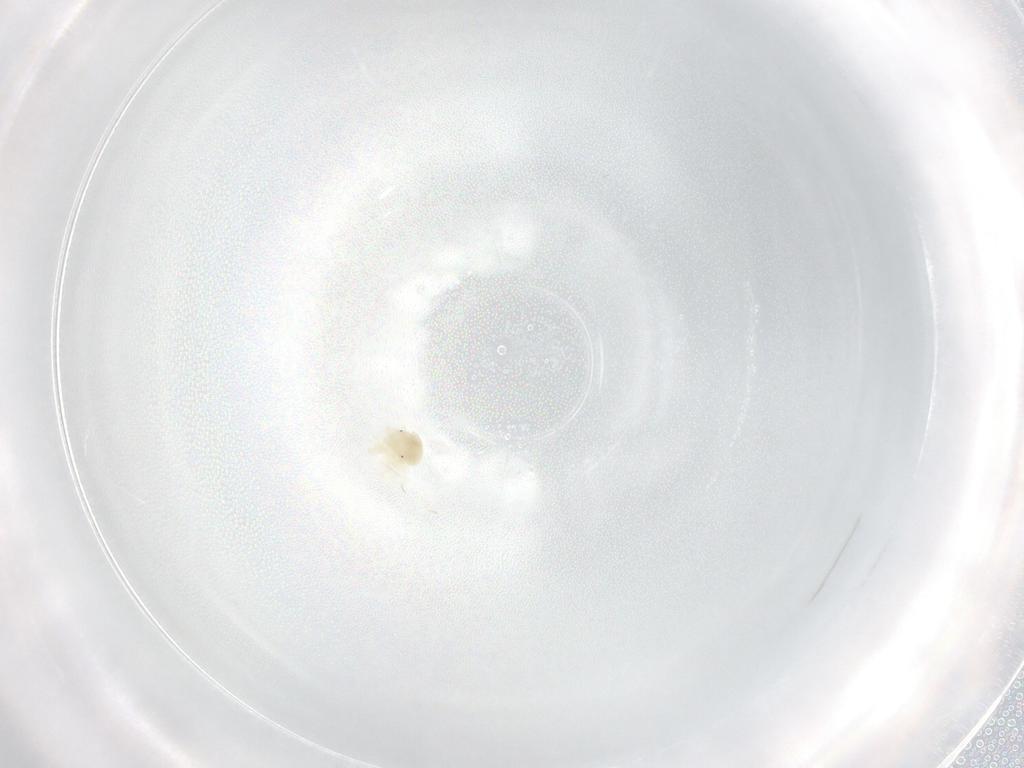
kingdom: Animalia
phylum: Arthropoda
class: Arachnida
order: Trombidiformes
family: Anystidae
